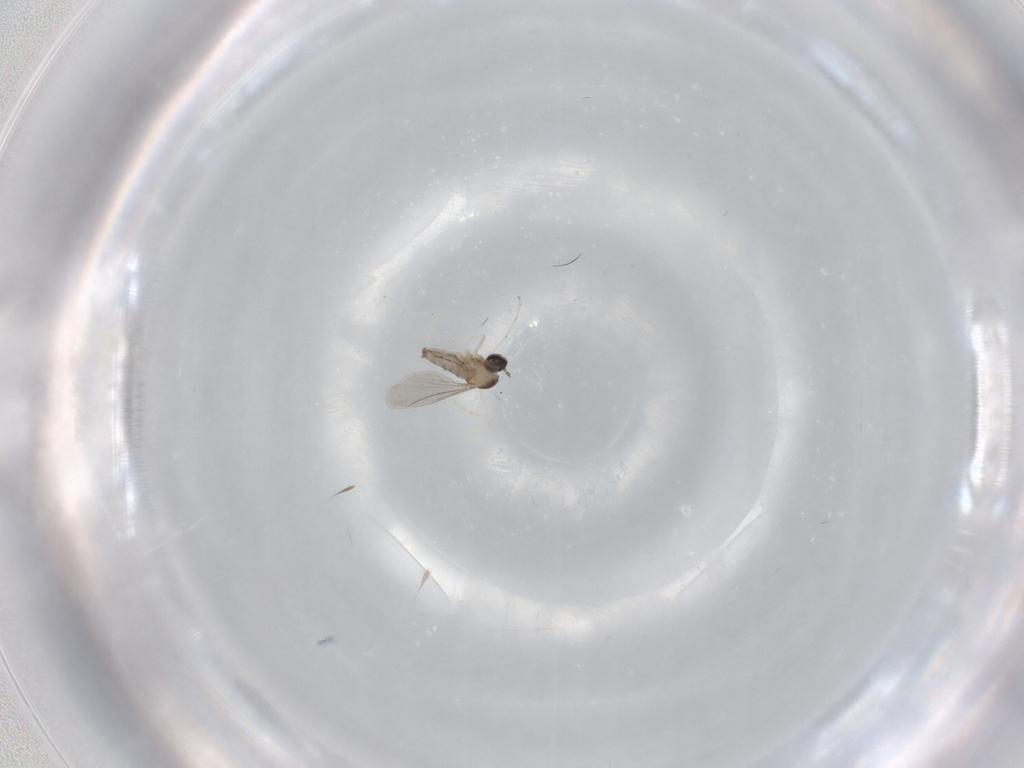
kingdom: Animalia
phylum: Arthropoda
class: Insecta
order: Diptera
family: Cecidomyiidae
